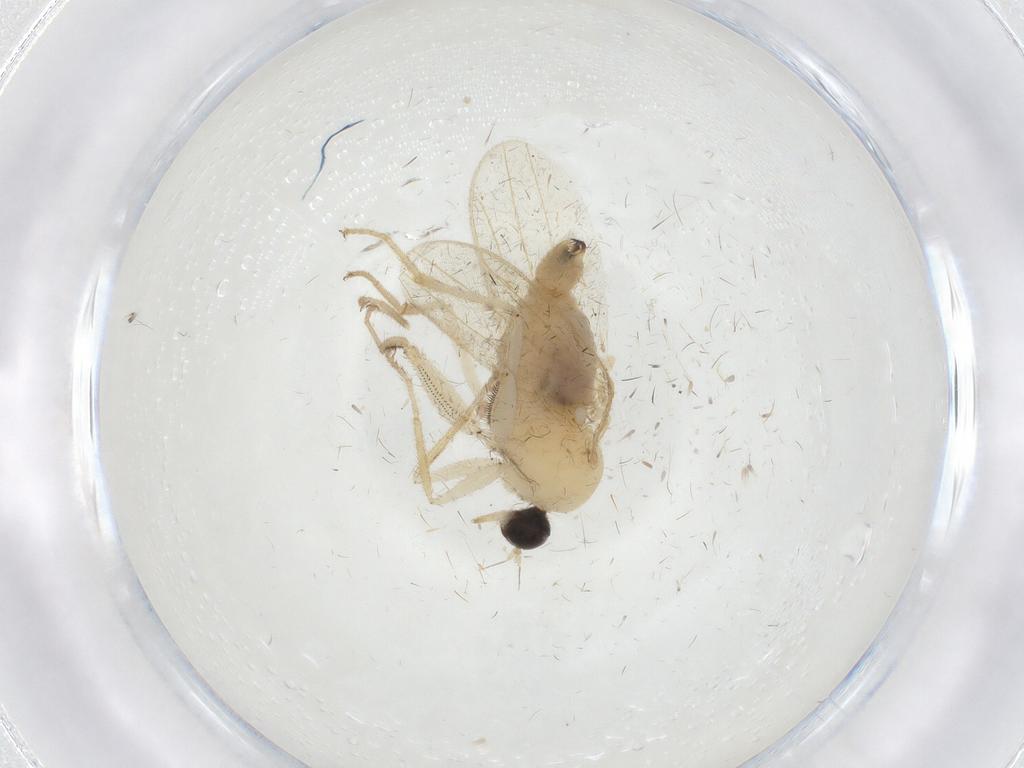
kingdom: Animalia
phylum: Arthropoda
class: Insecta
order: Diptera
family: Hybotidae
